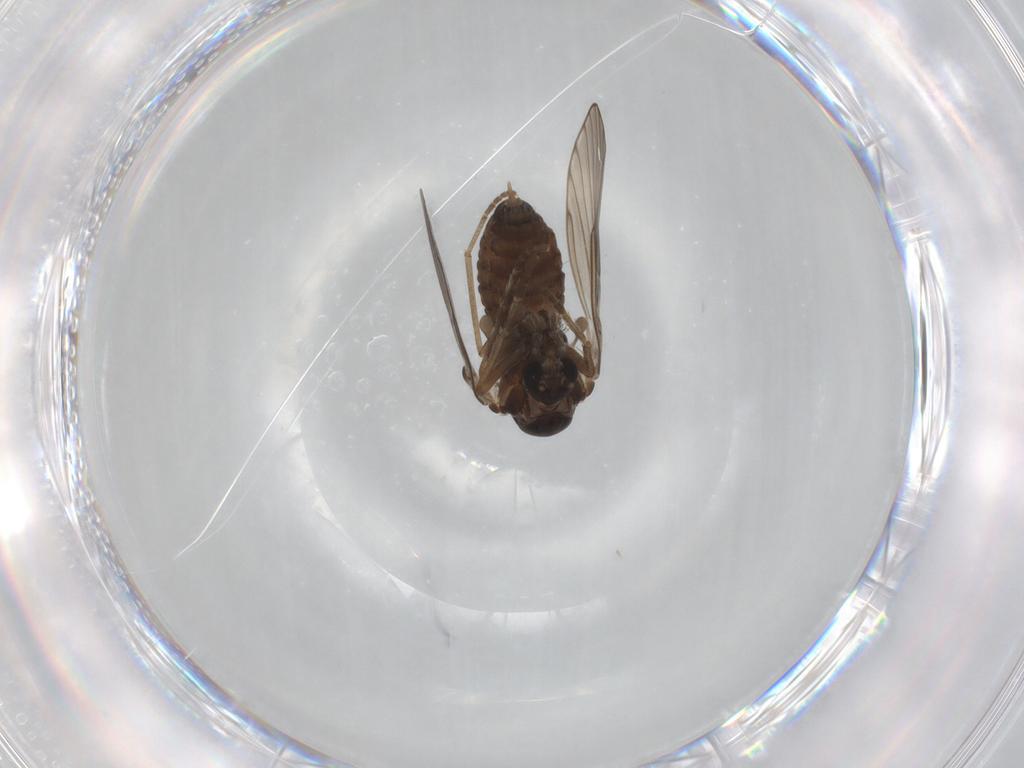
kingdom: Animalia
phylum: Arthropoda
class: Insecta
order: Diptera
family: Psychodidae
